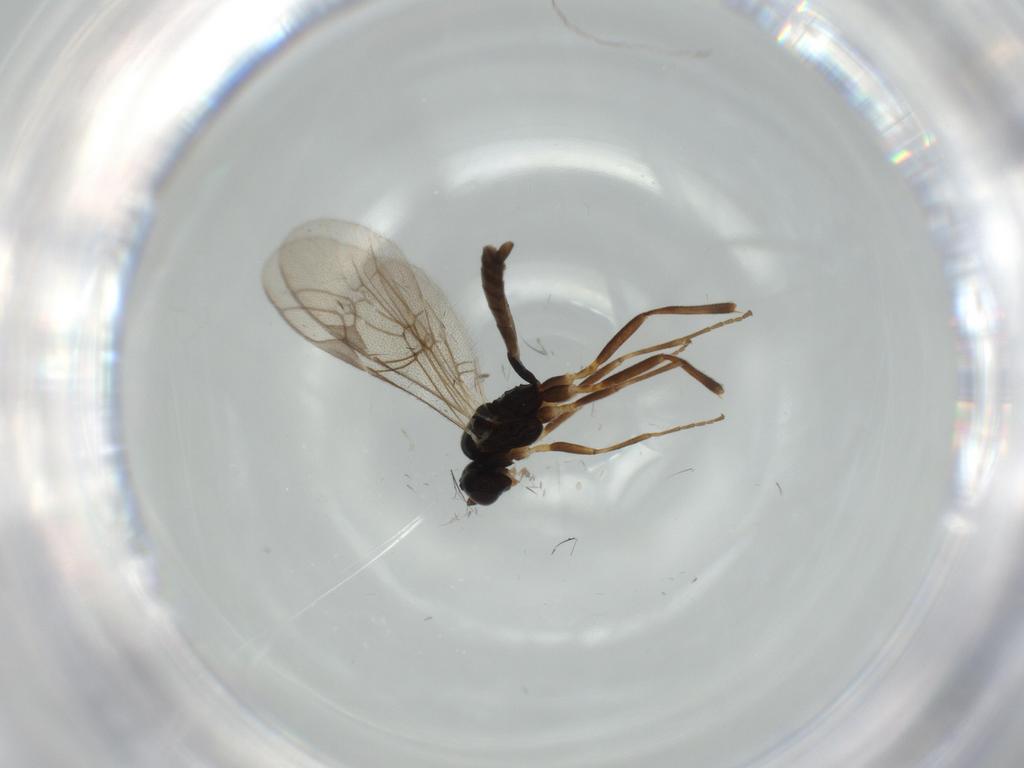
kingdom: Animalia
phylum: Arthropoda
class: Insecta
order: Hymenoptera
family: Ichneumonidae
